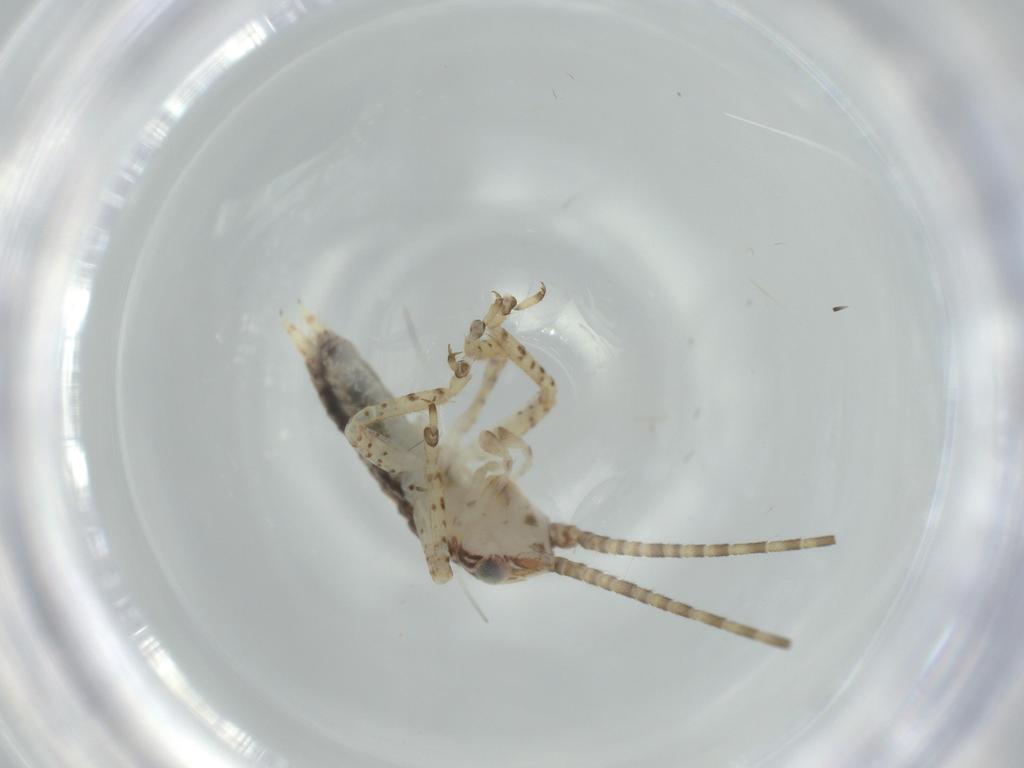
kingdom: Animalia
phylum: Arthropoda
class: Insecta
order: Orthoptera
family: Gryllidae
